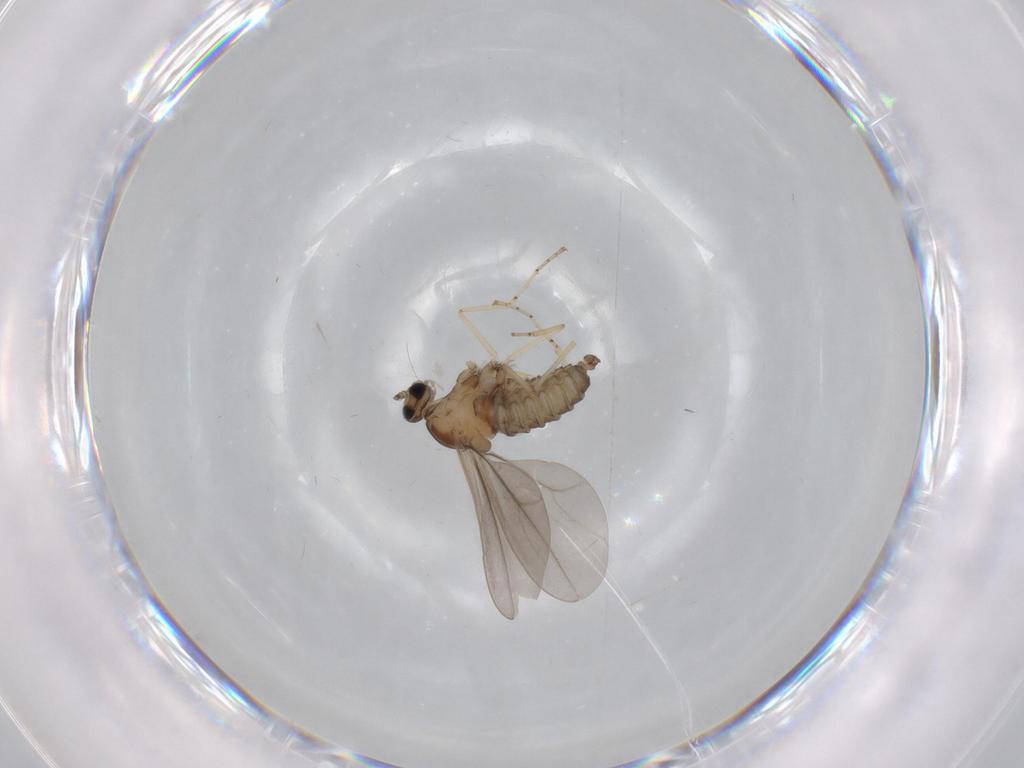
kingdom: Animalia
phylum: Arthropoda
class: Insecta
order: Diptera
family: Cecidomyiidae
